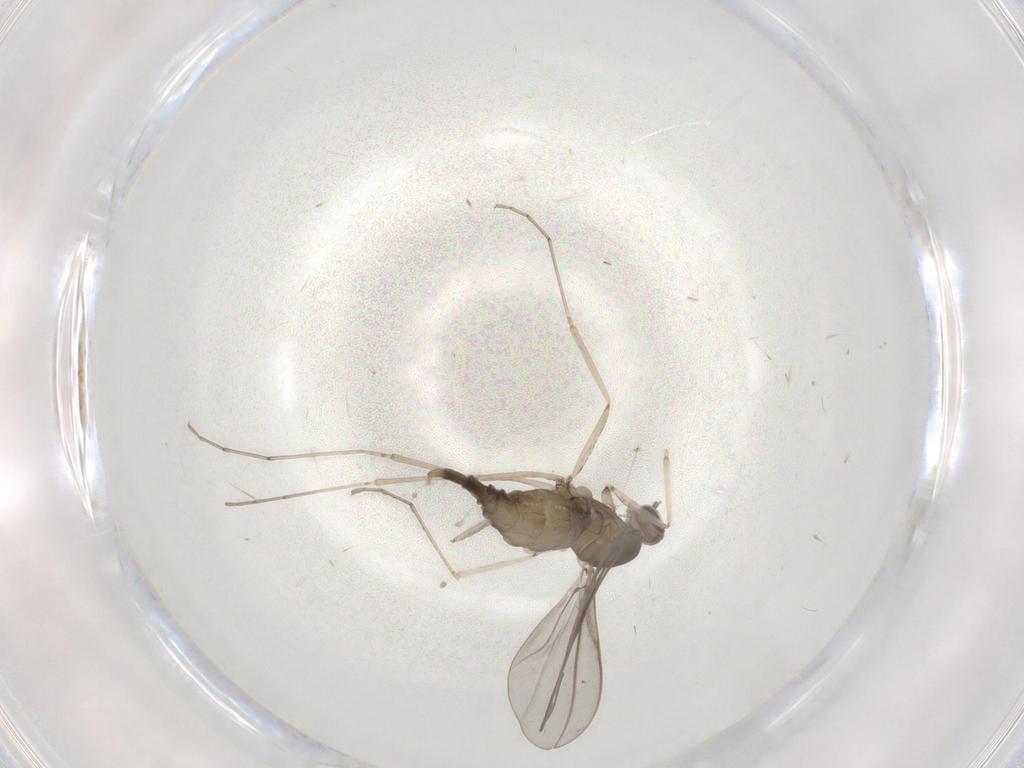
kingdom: Animalia
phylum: Arthropoda
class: Insecta
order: Diptera
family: Cecidomyiidae
